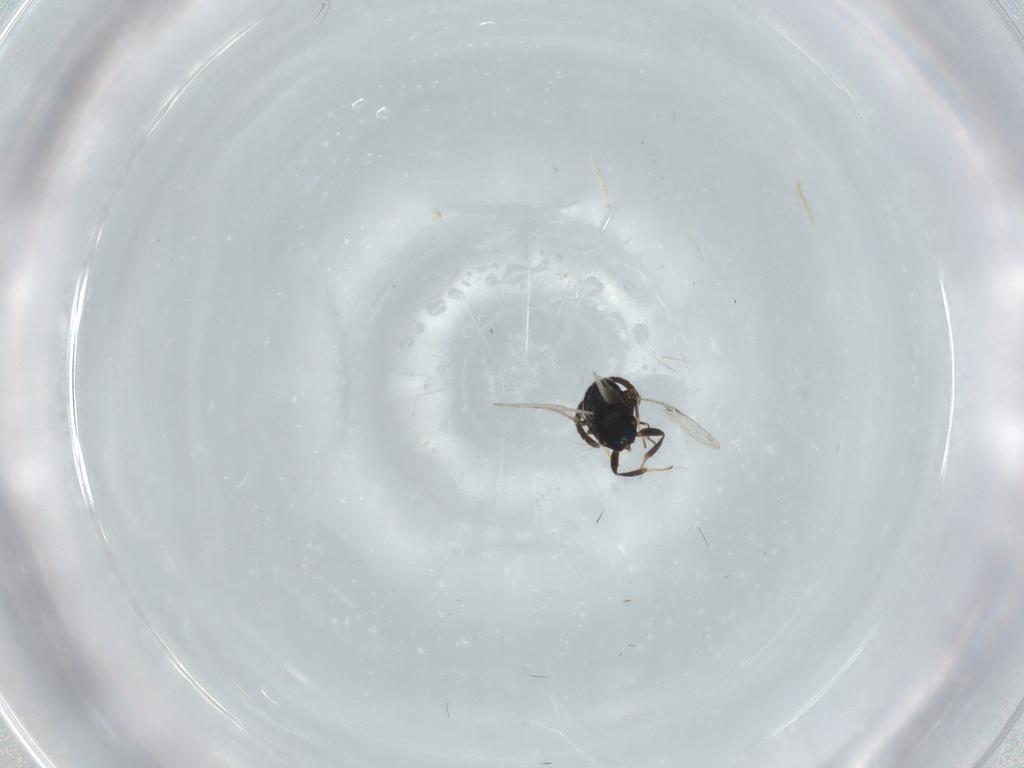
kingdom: Animalia
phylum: Arthropoda
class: Insecta
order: Hymenoptera
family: Encyrtidae
